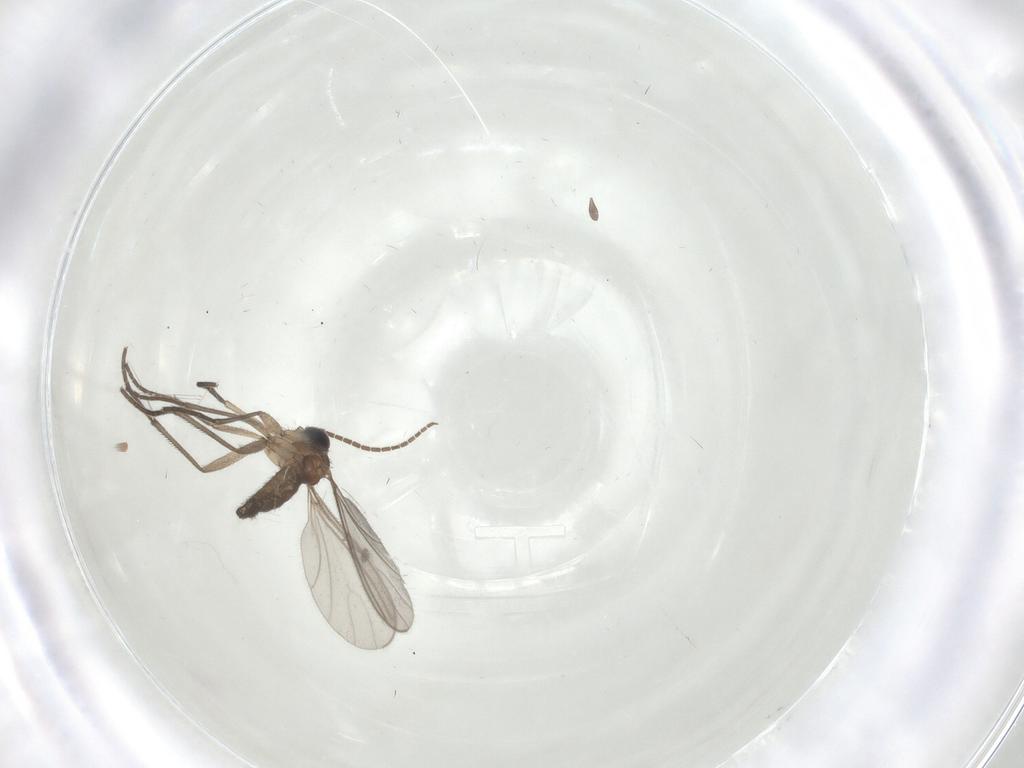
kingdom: Animalia
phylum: Arthropoda
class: Insecta
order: Diptera
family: Sciaridae
